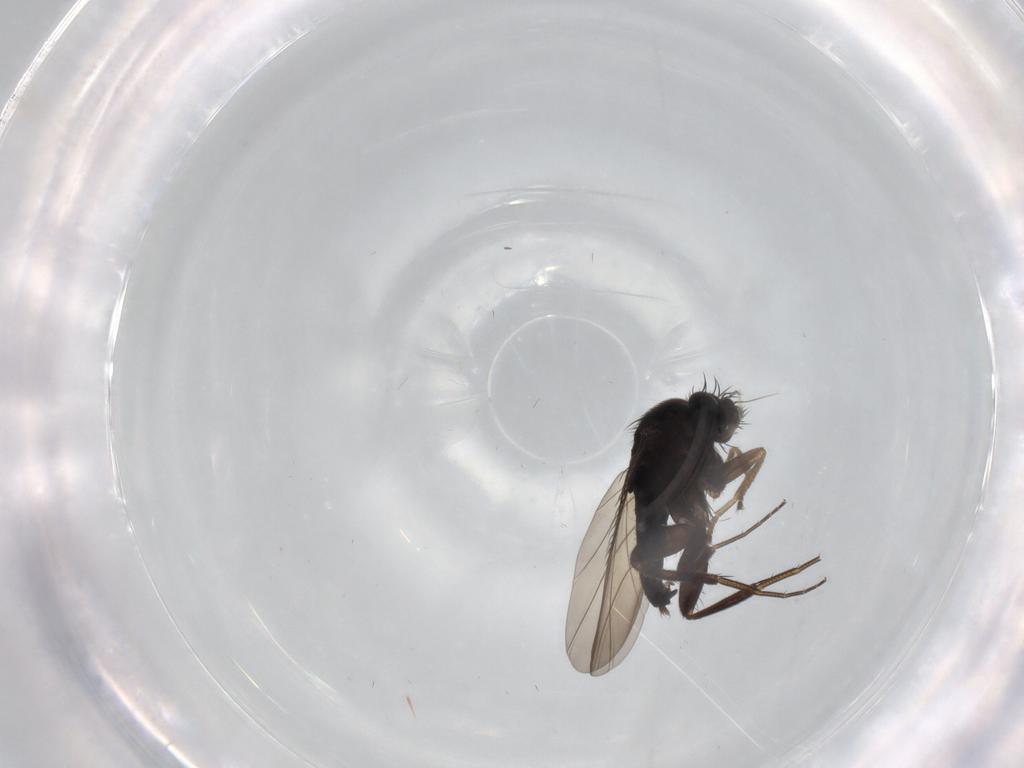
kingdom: Animalia
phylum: Arthropoda
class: Insecta
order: Diptera
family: Phoridae
